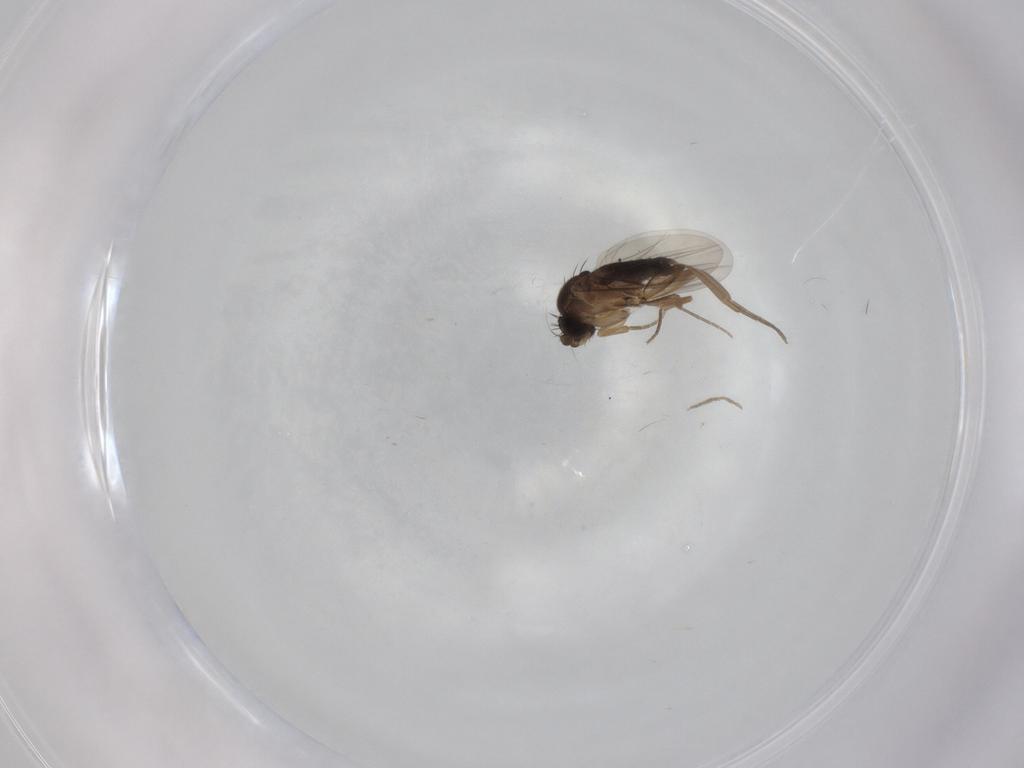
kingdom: Animalia
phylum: Arthropoda
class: Insecta
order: Diptera
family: Phoridae
